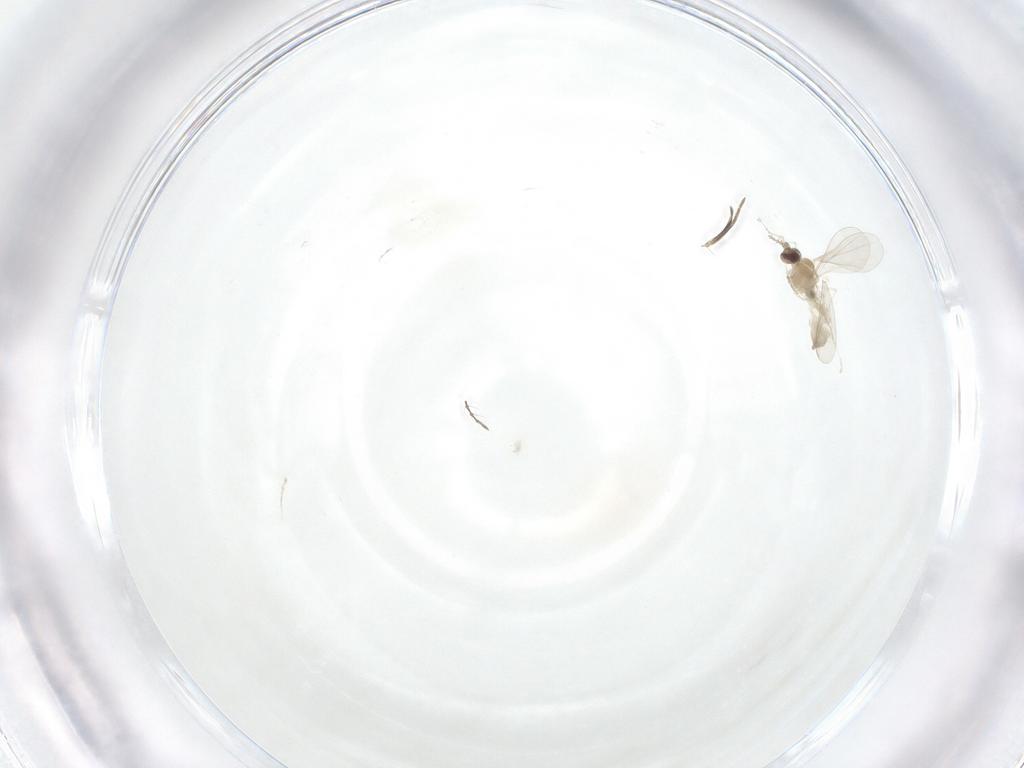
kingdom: Animalia
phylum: Arthropoda
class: Insecta
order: Diptera
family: Cecidomyiidae
